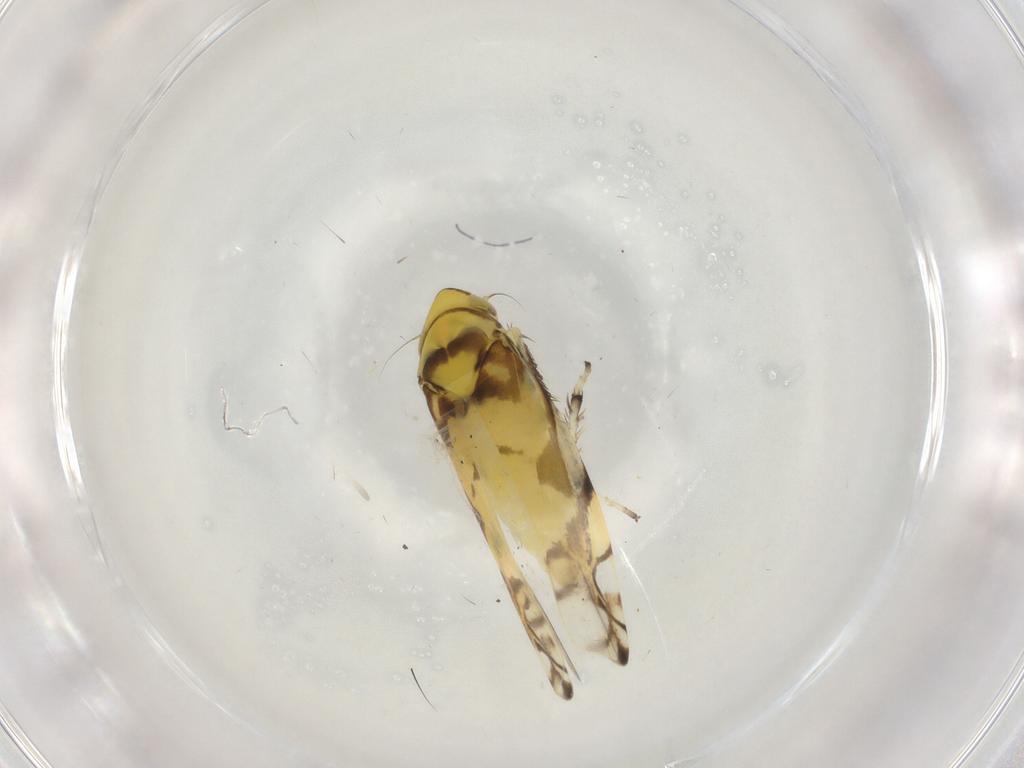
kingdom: Animalia
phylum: Arthropoda
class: Insecta
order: Hemiptera
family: Cicadellidae
